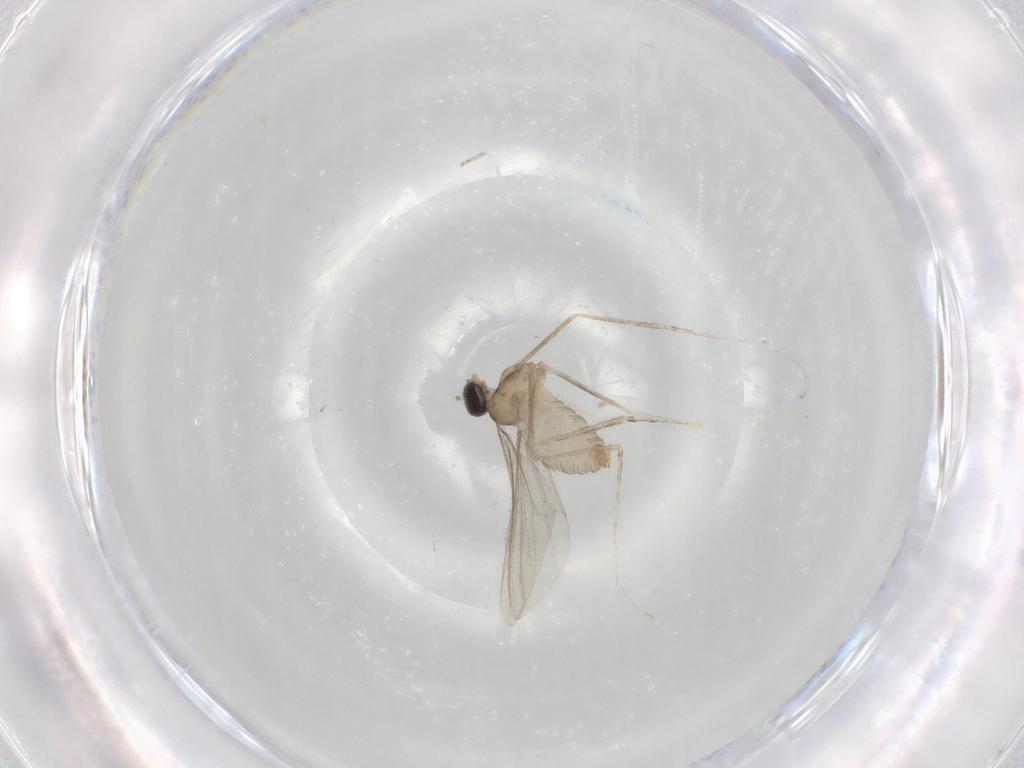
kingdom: Animalia
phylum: Arthropoda
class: Insecta
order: Diptera
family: Cecidomyiidae
